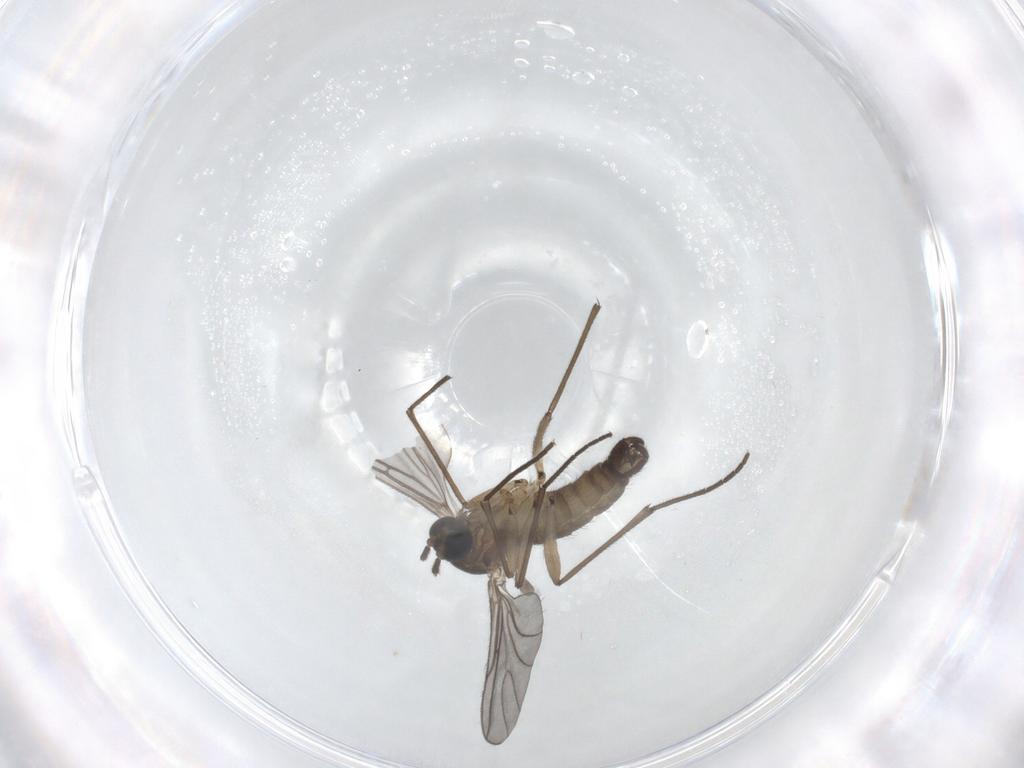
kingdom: Animalia
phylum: Arthropoda
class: Insecta
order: Diptera
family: Sciaridae
